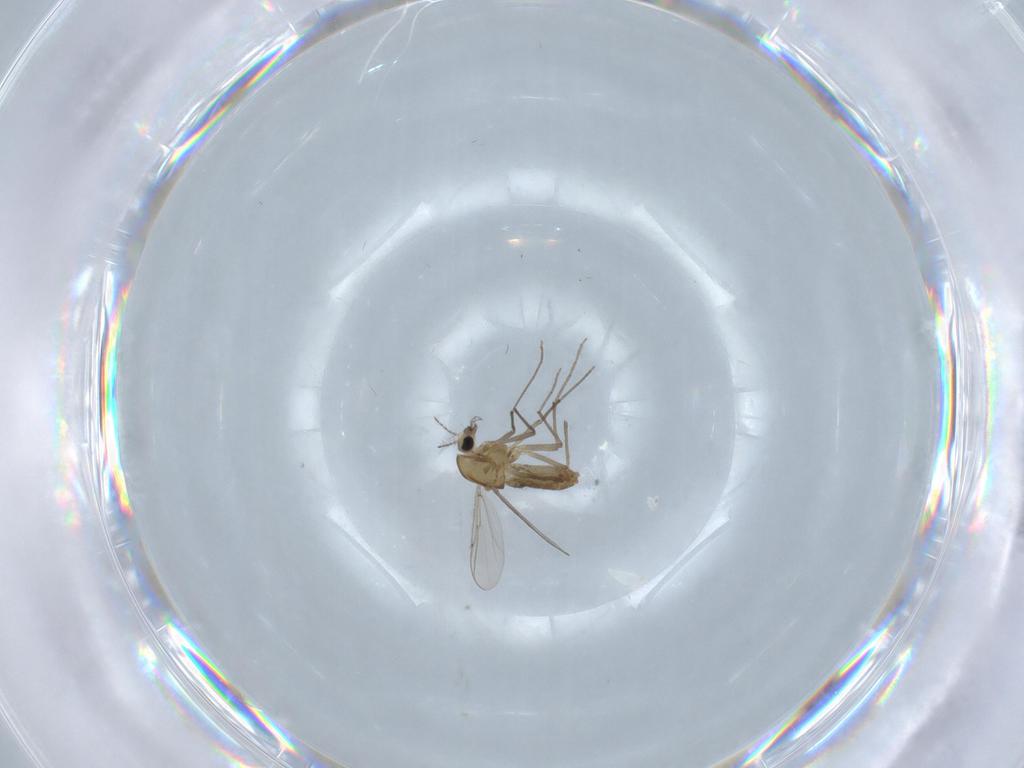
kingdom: Animalia
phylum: Arthropoda
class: Insecta
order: Diptera
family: Chironomidae
